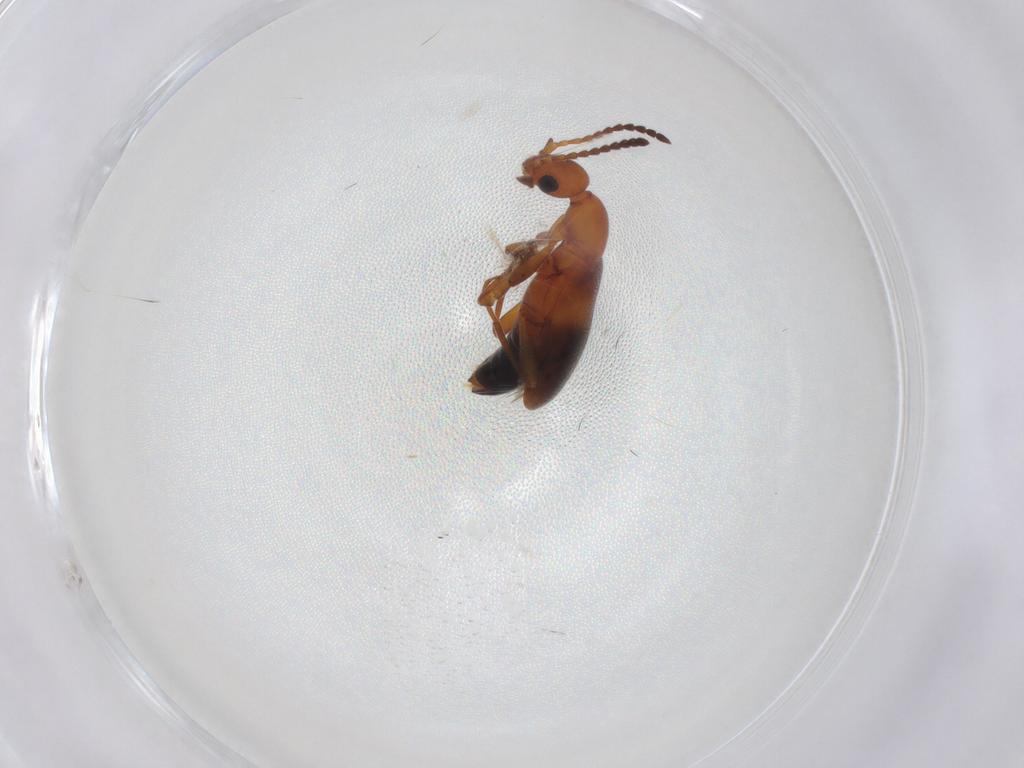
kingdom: Animalia
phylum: Arthropoda
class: Insecta
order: Coleoptera
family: Anthicidae
